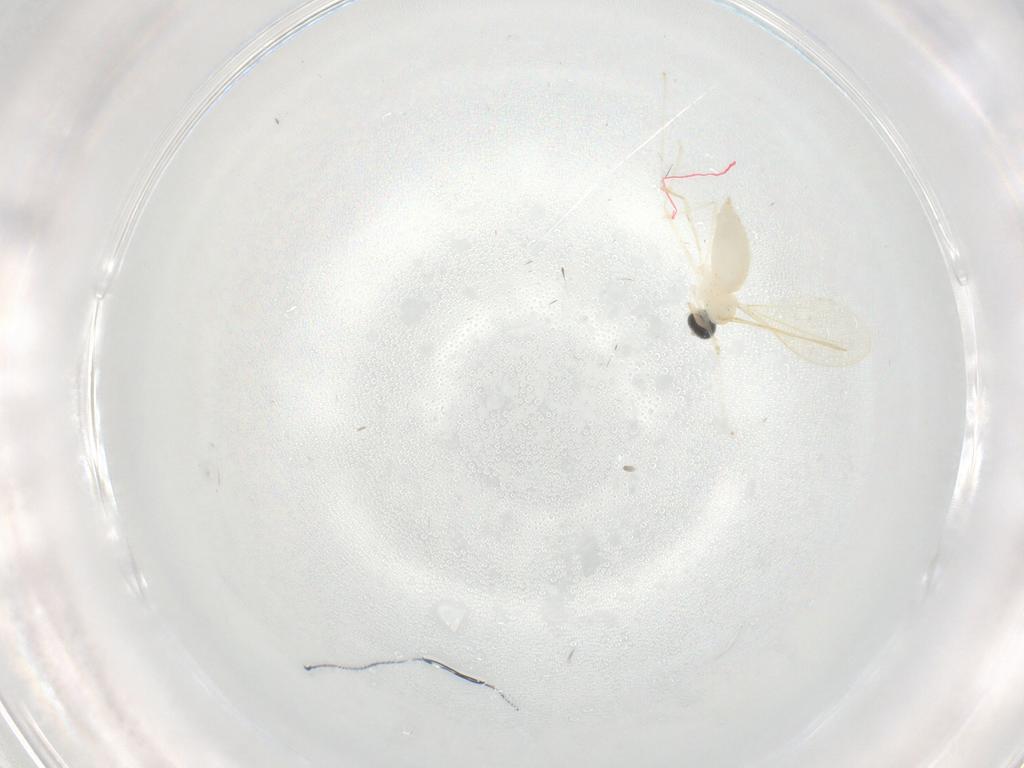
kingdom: Animalia
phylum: Arthropoda
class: Insecta
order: Diptera
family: Cecidomyiidae
